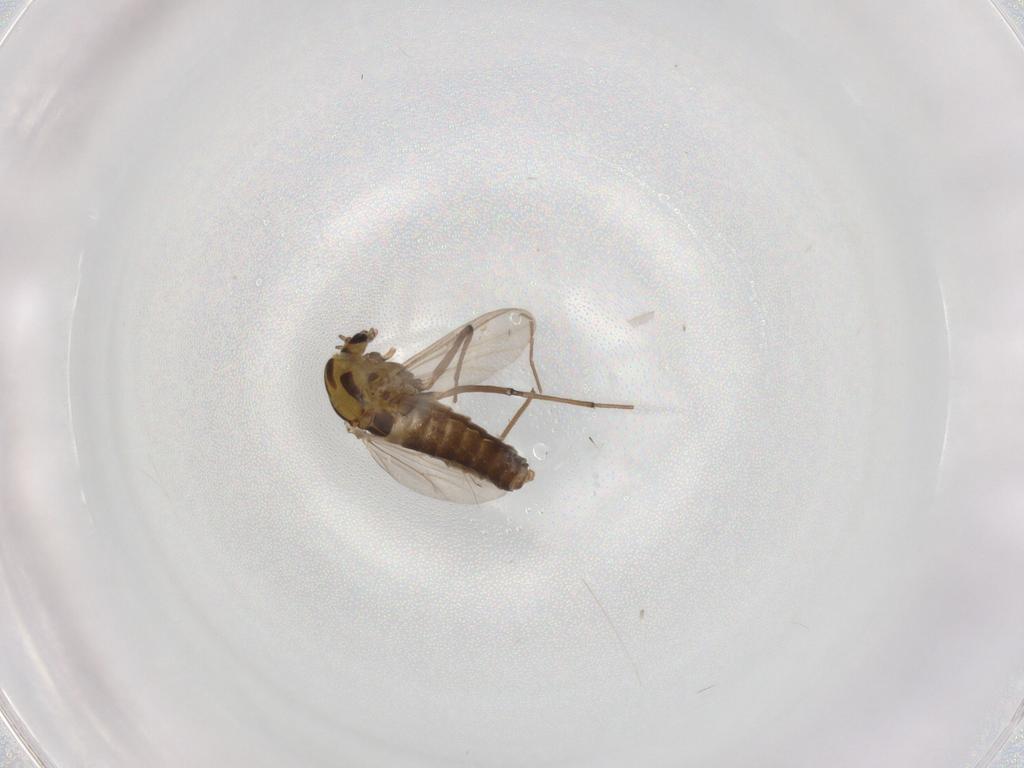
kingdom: Animalia
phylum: Arthropoda
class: Insecta
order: Diptera
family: Chironomidae
